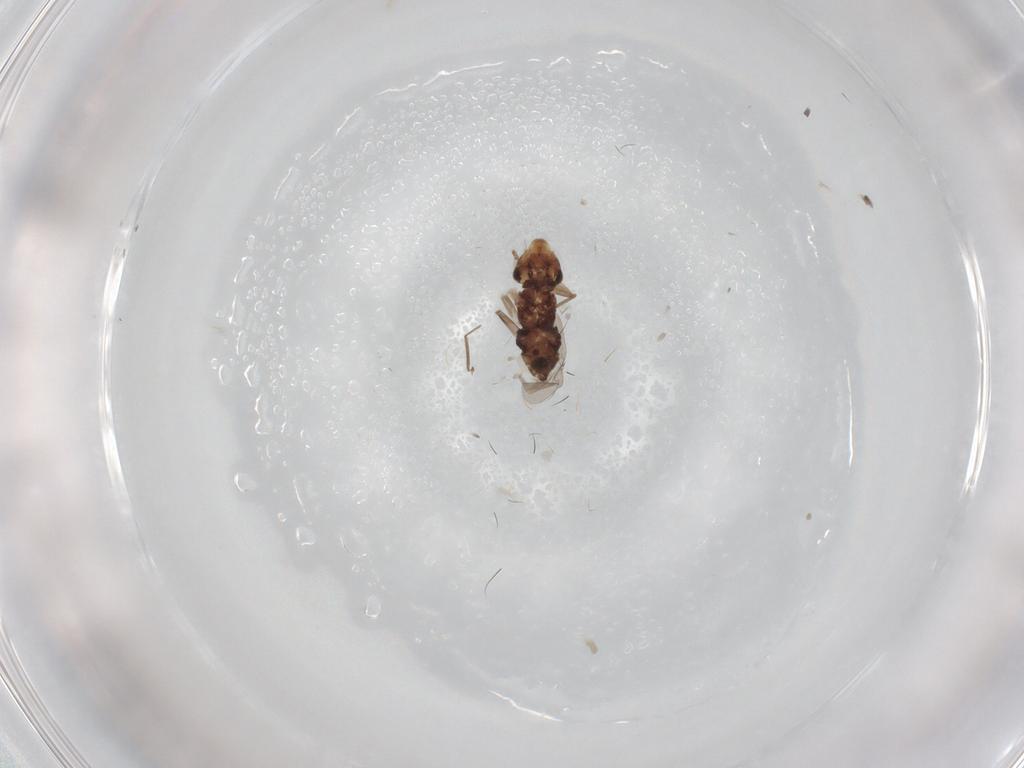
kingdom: Animalia
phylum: Arthropoda
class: Insecta
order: Psocodea
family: Lepidopsocidae
